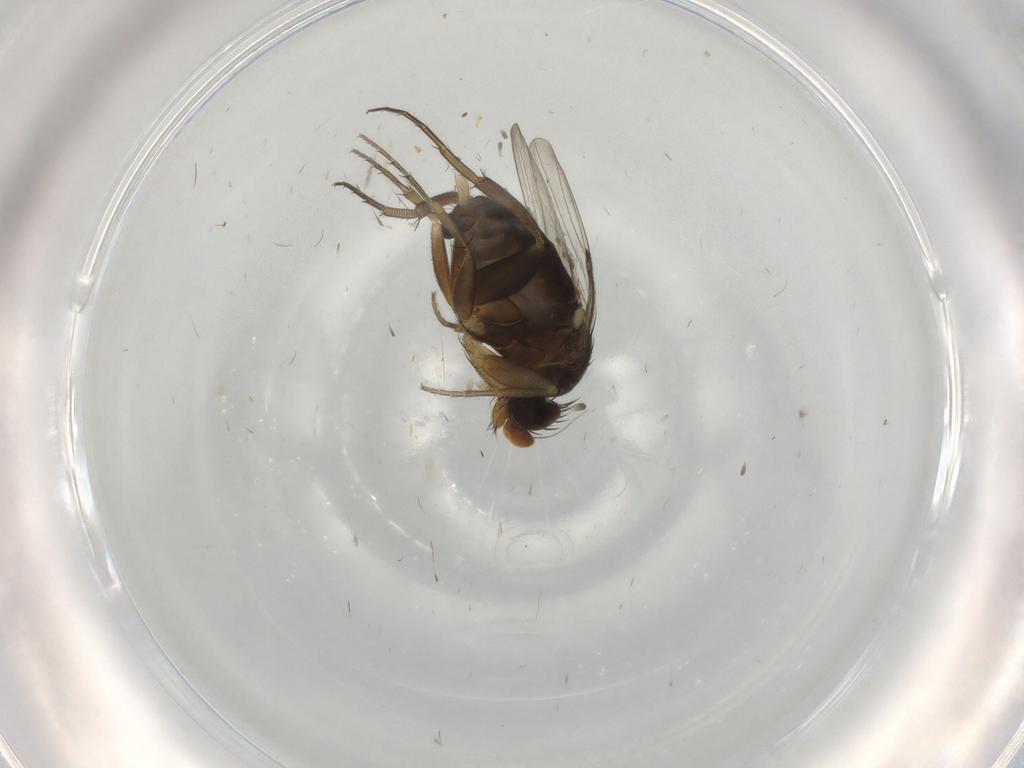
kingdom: Animalia
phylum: Arthropoda
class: Insecta
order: Diptera
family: Phoridae
